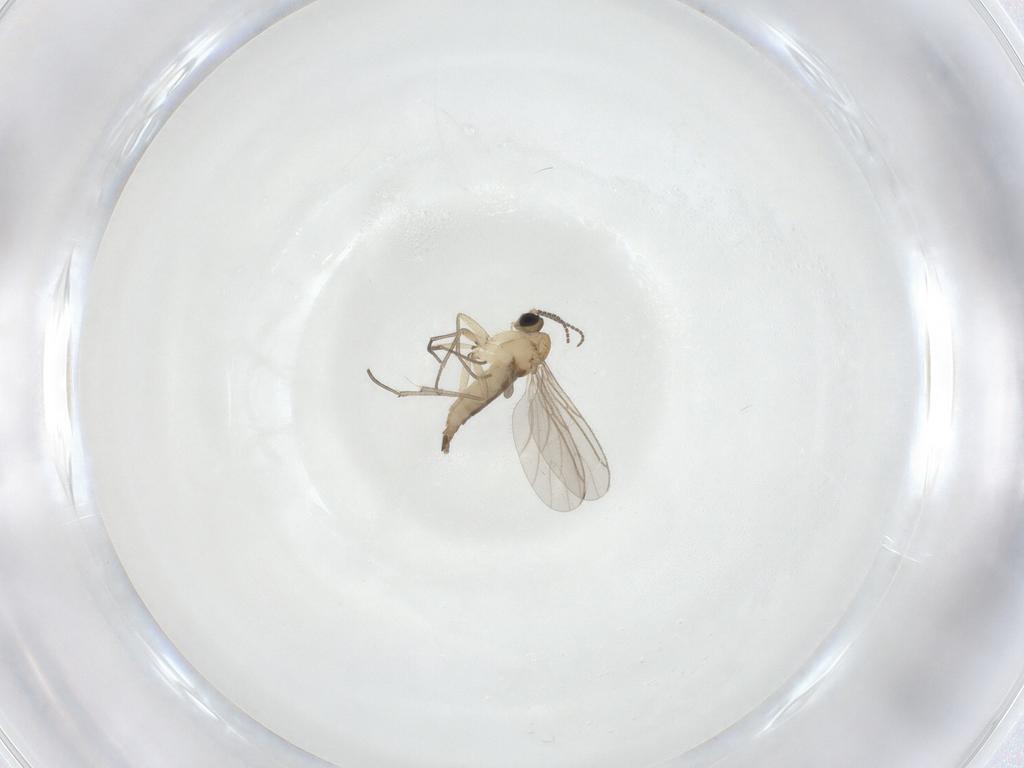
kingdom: Animalia
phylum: Arthropoda
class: Insecta
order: Diptera
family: Sciaridae
